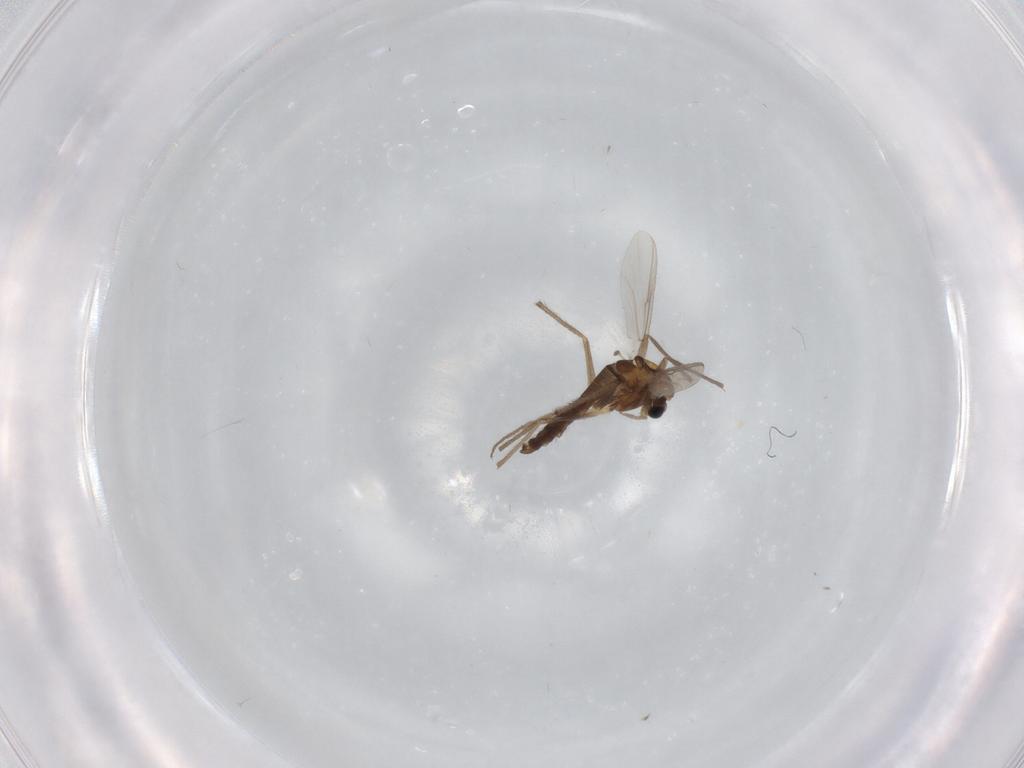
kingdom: Animalia
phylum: Arthropoda
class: Insecta
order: Diptera
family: Chironomidae
